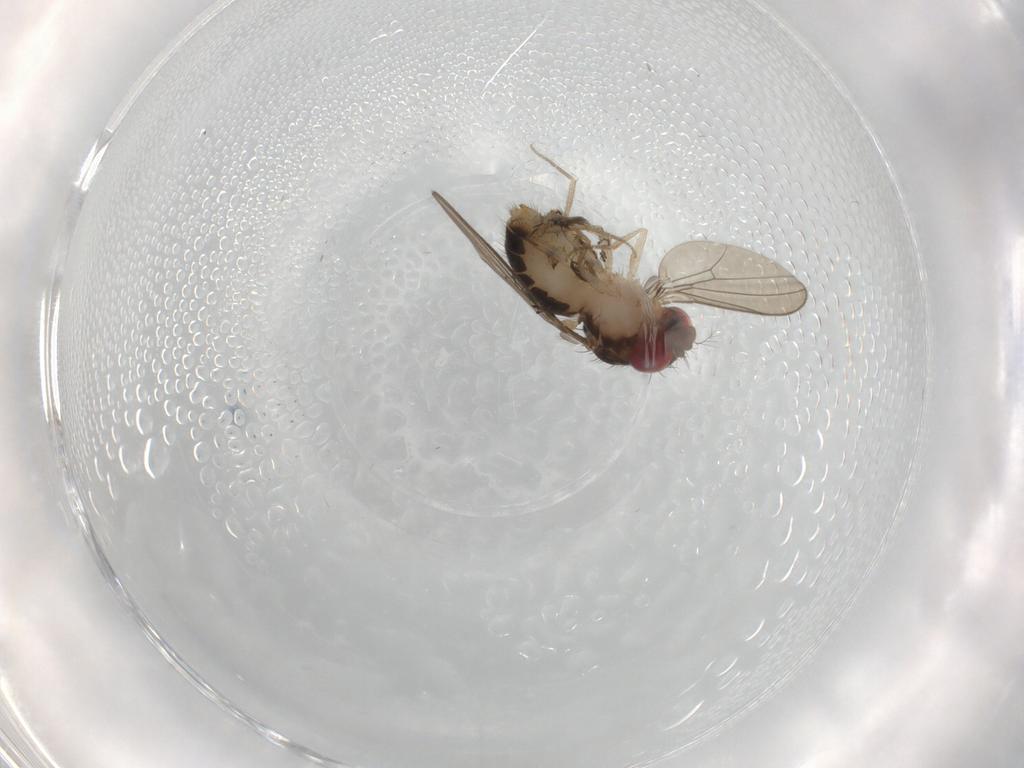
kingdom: Animalia
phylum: Arthropoda
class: Insecta
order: Diptera
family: Drosophilidae
